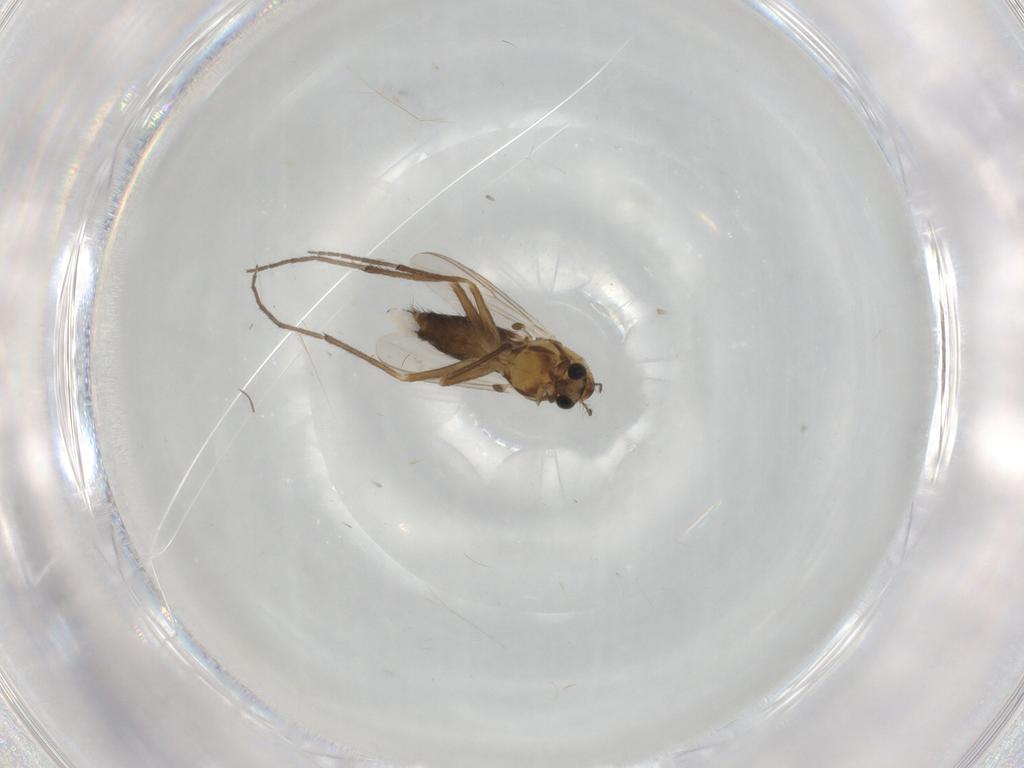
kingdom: Animalia
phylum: Arthropoda
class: Insecta
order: Diptera
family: Chironomidae
